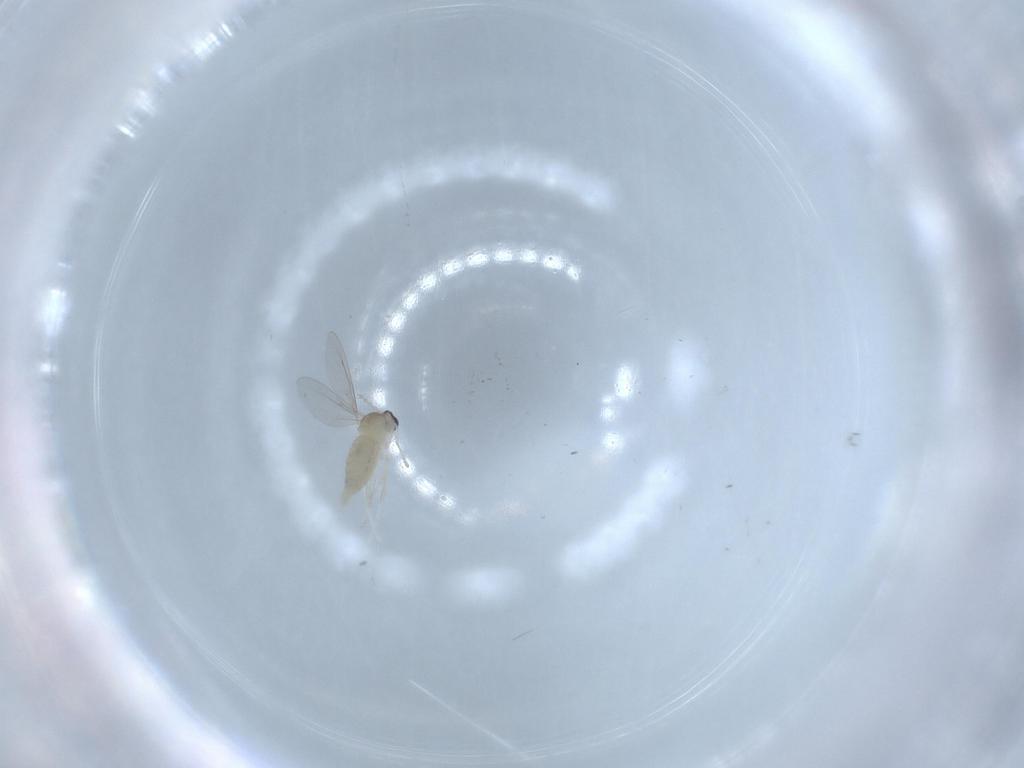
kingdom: Animalia
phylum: Arthropoda
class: Insecta
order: Diptera
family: Cecidomyiidae
